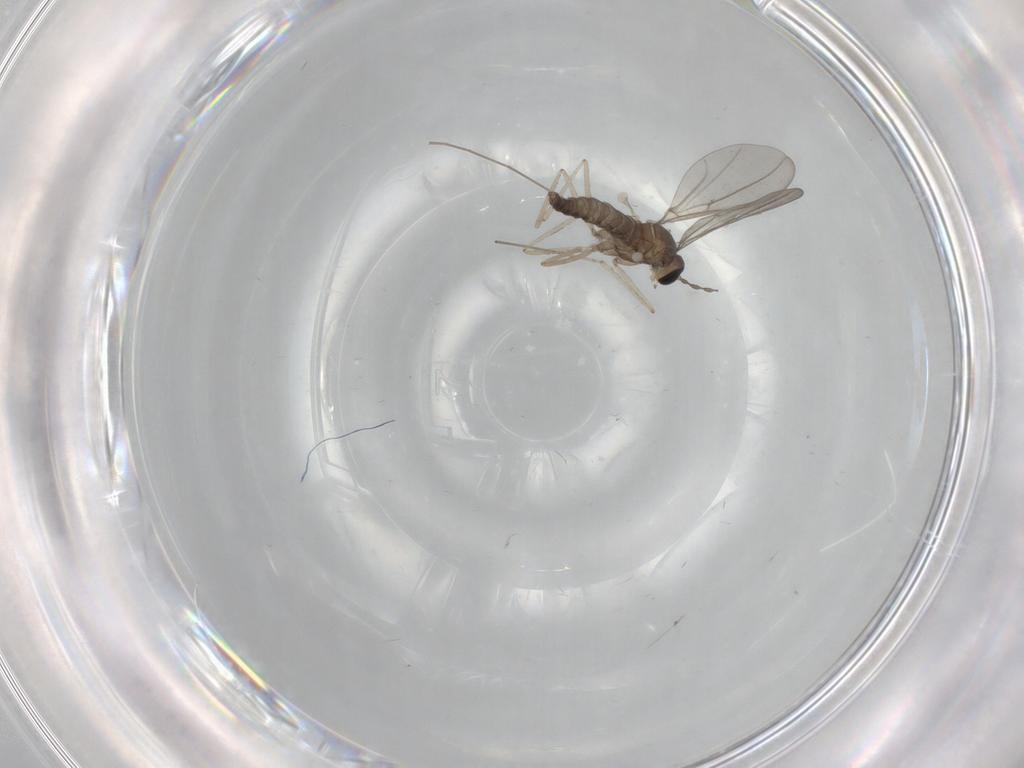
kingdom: Animalia
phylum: Arthropoda
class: Insecta
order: Diptera
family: Cecidomyiidae
